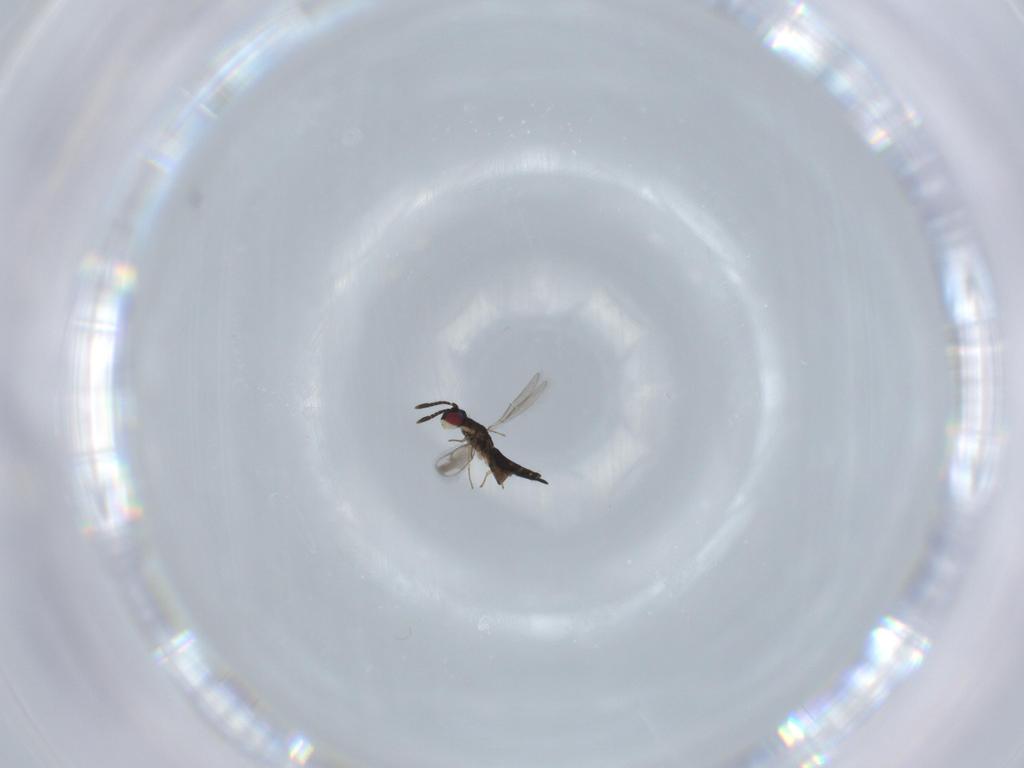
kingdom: Animalia
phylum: Arthropoda
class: Insecta
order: Hymenoptera
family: Pteromalidae
